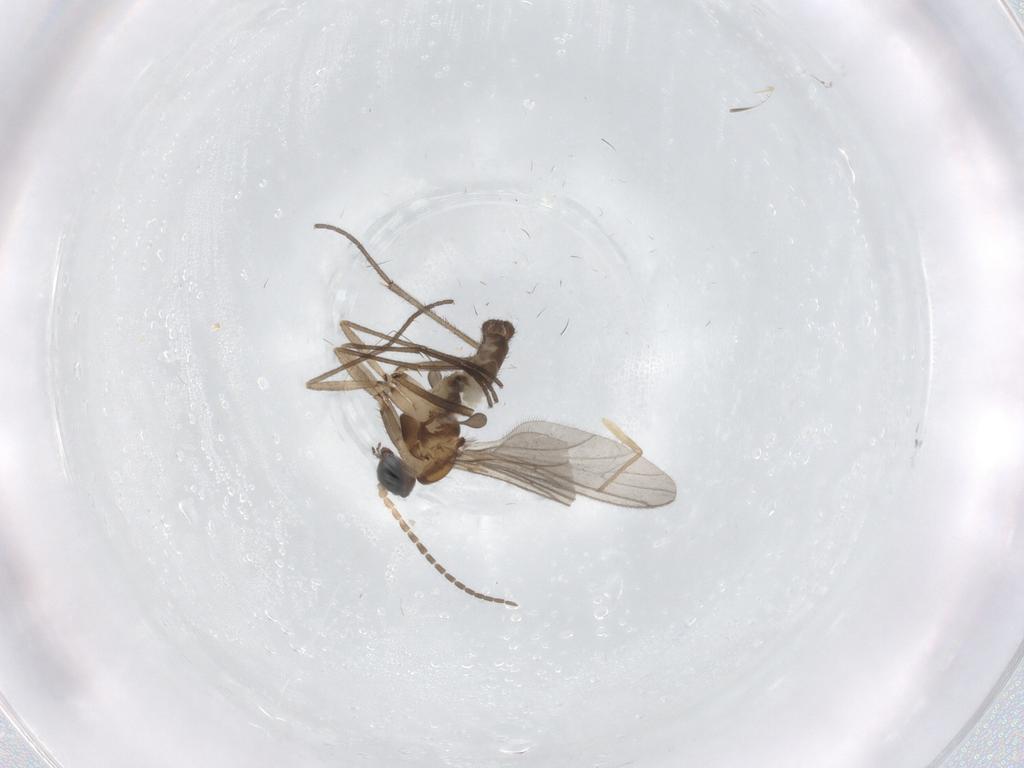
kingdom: Animalia
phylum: Arthropoda
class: Insecta
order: Diptera
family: Sciaridae
